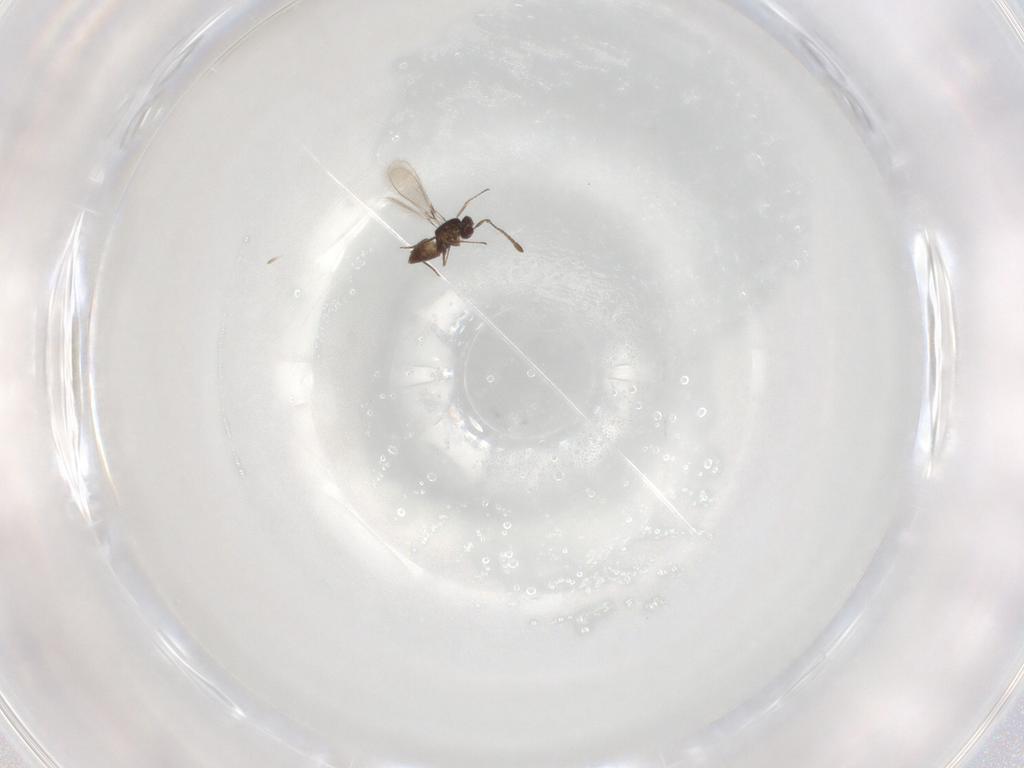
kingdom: Animalia
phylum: Arthropoda
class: Insecta
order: Hymenoptera
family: Mymaridae
